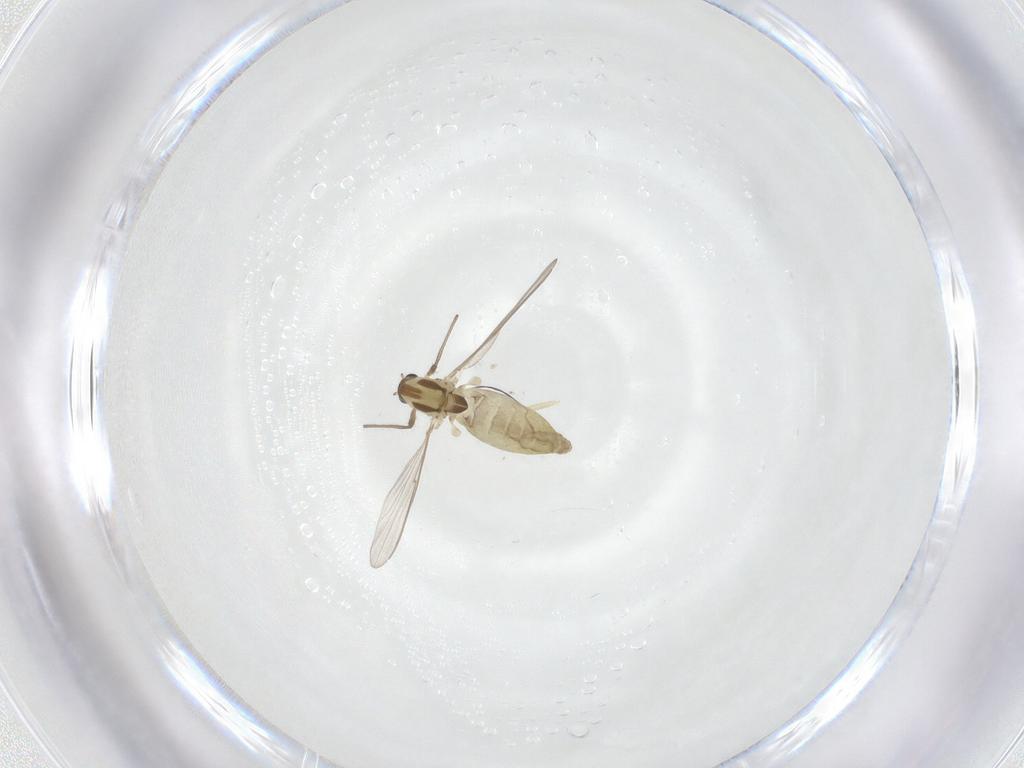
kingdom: Animalia
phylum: Arthropoda
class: Insecta
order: Diptera
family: Chironomidae
